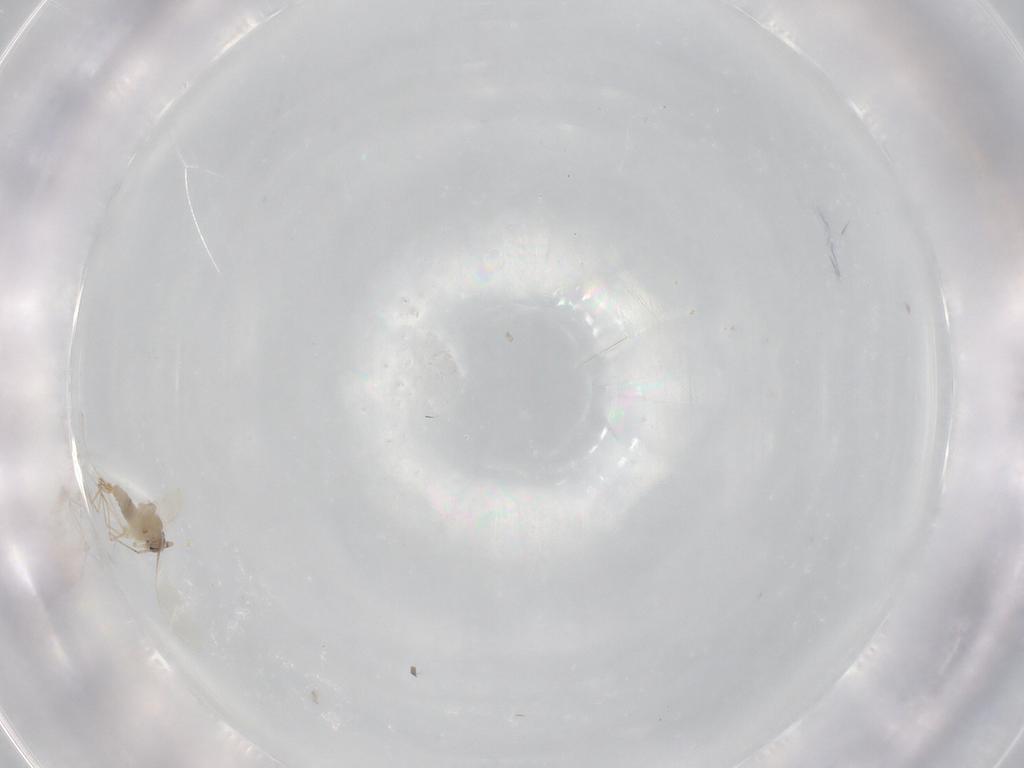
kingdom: Animalia
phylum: Arthropoda
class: Insecta
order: Diptera
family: Cecidomyiidae
